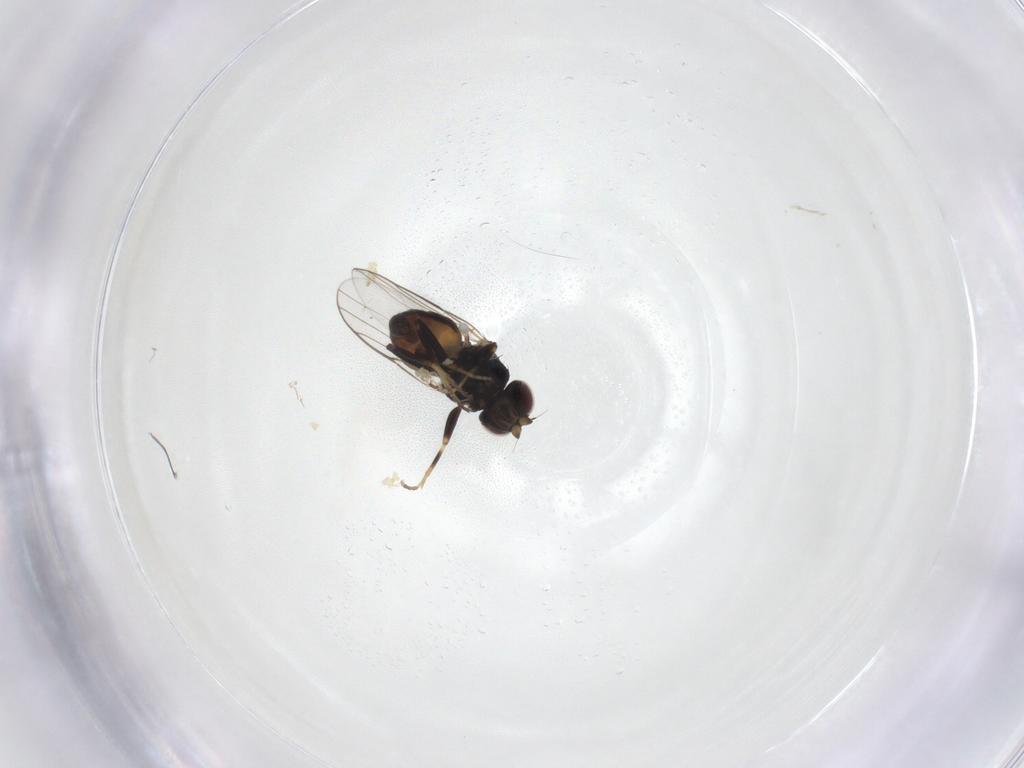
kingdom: Animalia
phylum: Arthropoda
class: Insecta
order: Diptera
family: Chloropidae
